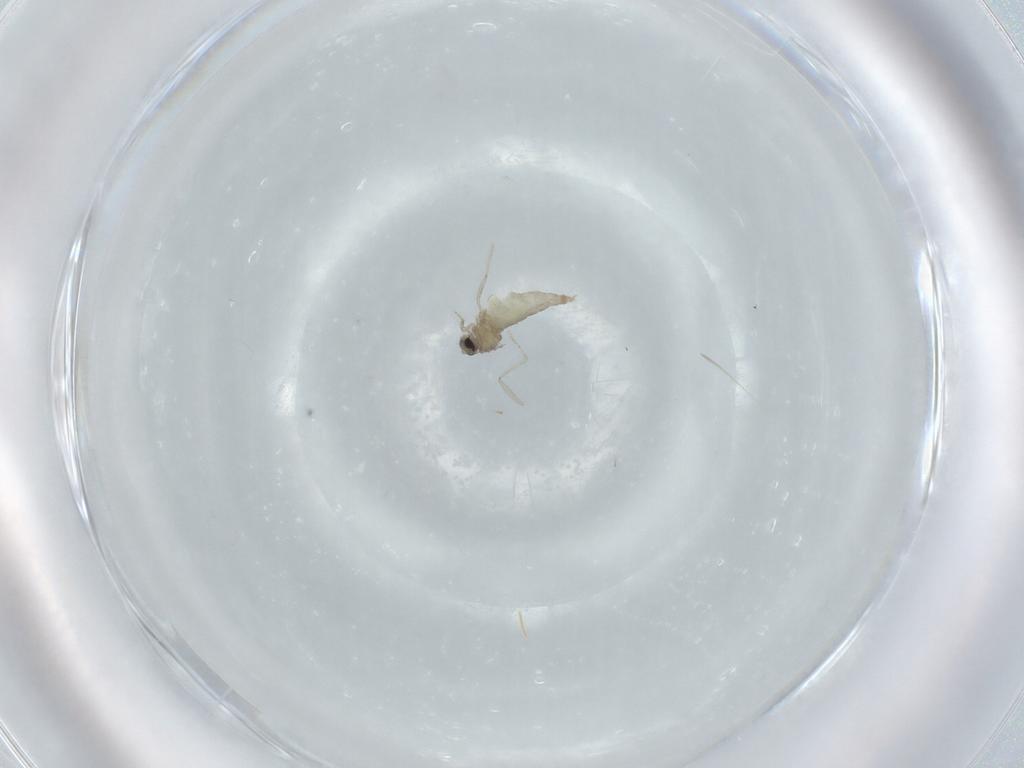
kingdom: Animalia
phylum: Arthropoda
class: Insecta
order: Diptera
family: Cecidomyiidae
